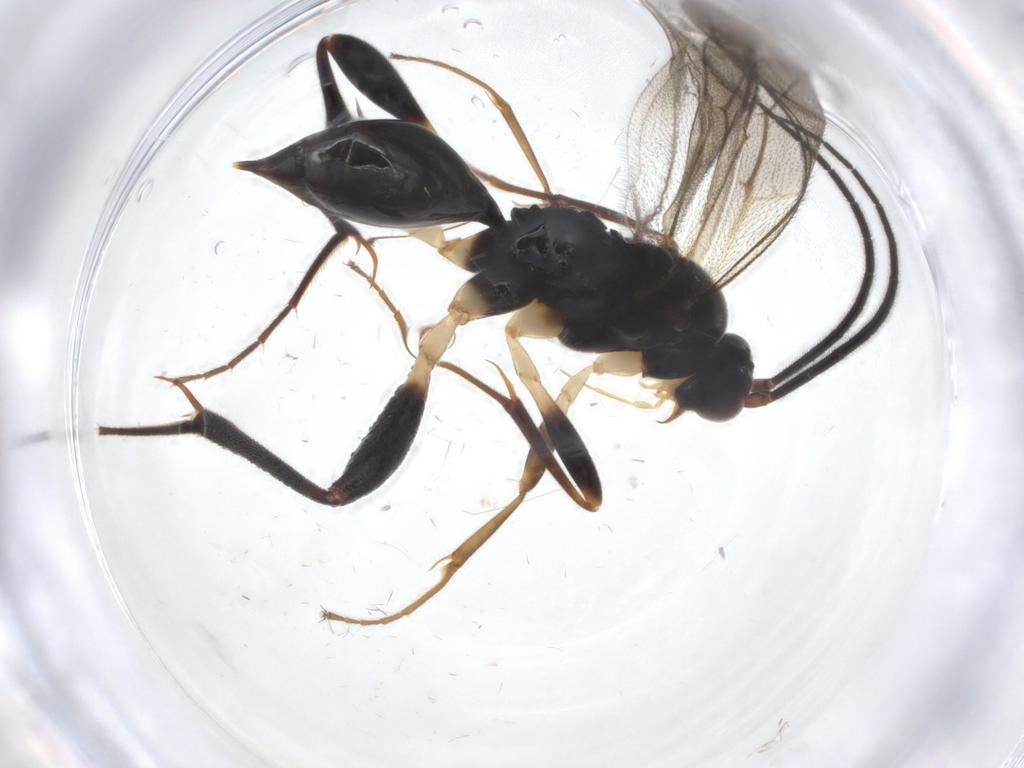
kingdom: Animalia
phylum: Arthropoda
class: Insecta
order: Hymenoptera
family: Proctotrupidae
